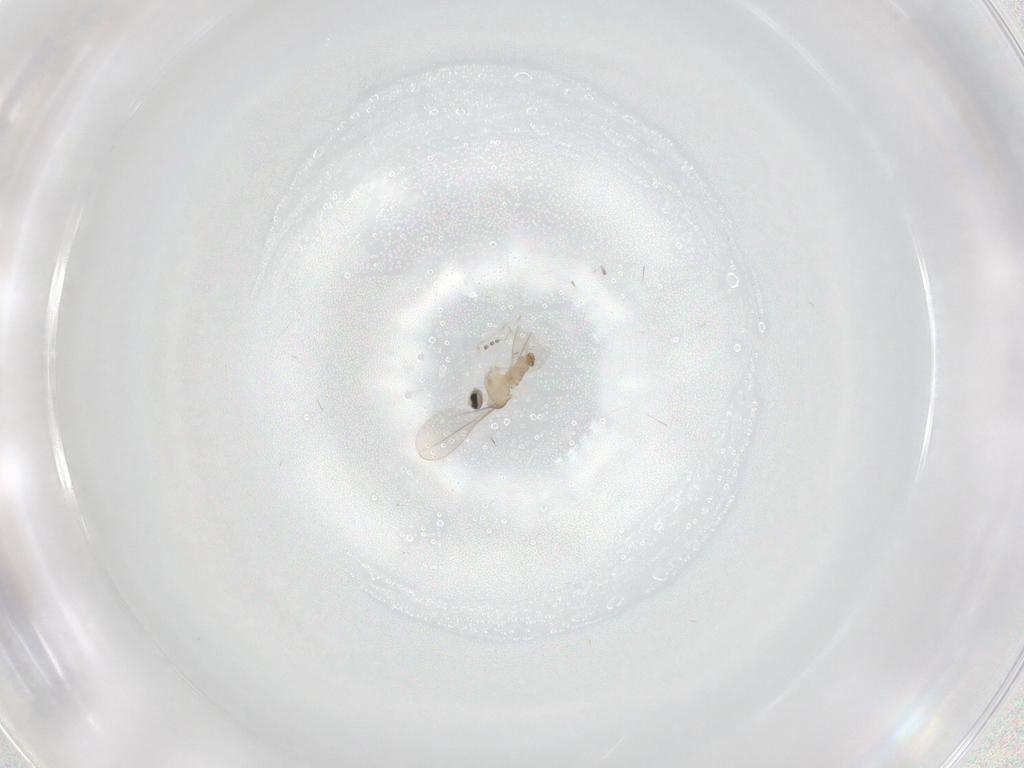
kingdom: Animalia
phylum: Arthropoda
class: Insecta
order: Diptera
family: Cecidomyiidae
